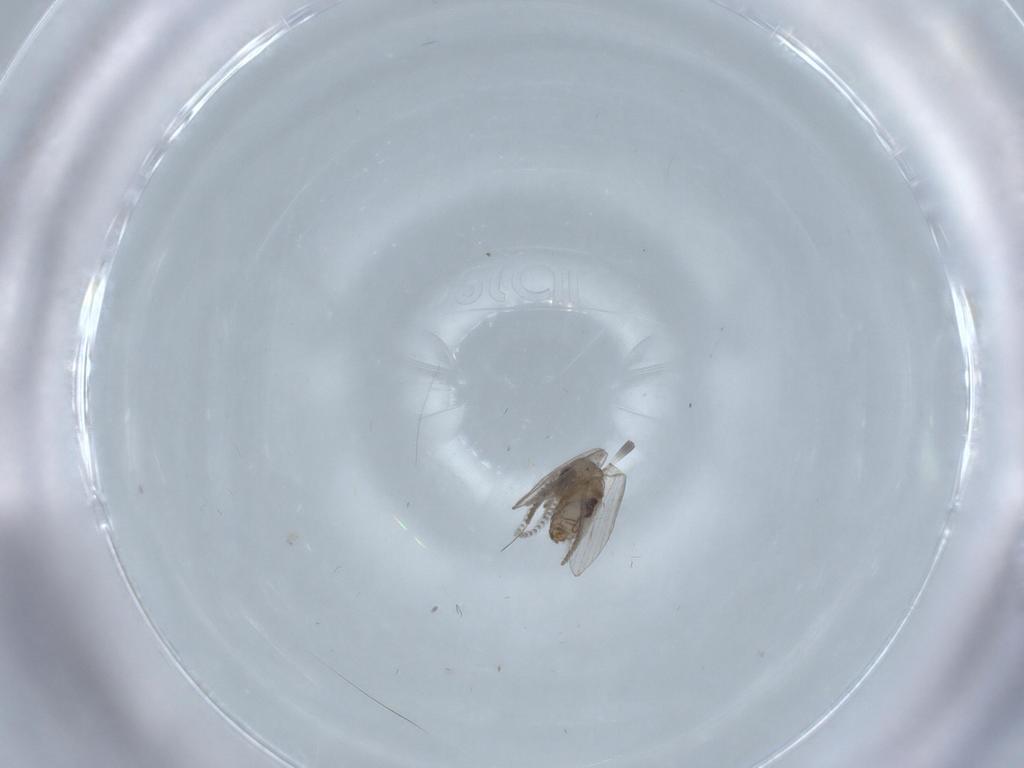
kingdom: Animalia
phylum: Arthropoda
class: Insecta
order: Diptera
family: Psychodidae
